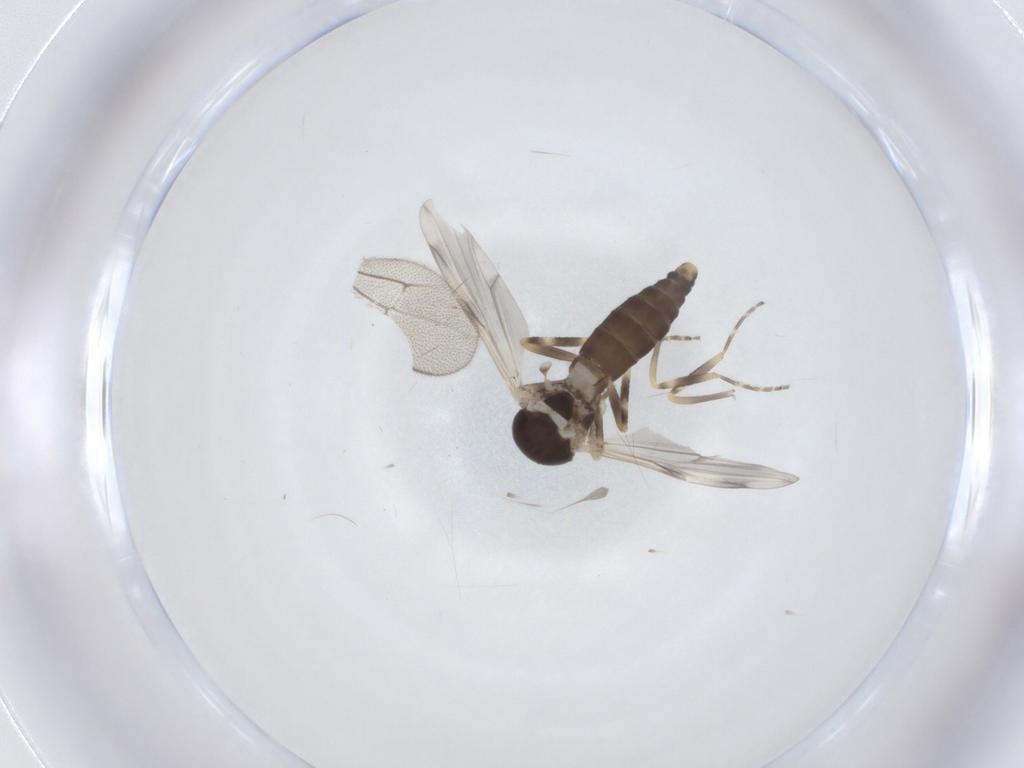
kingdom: Animalia
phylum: Arthropoda
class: Insecta
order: Diptera
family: Ceratopogonidae
